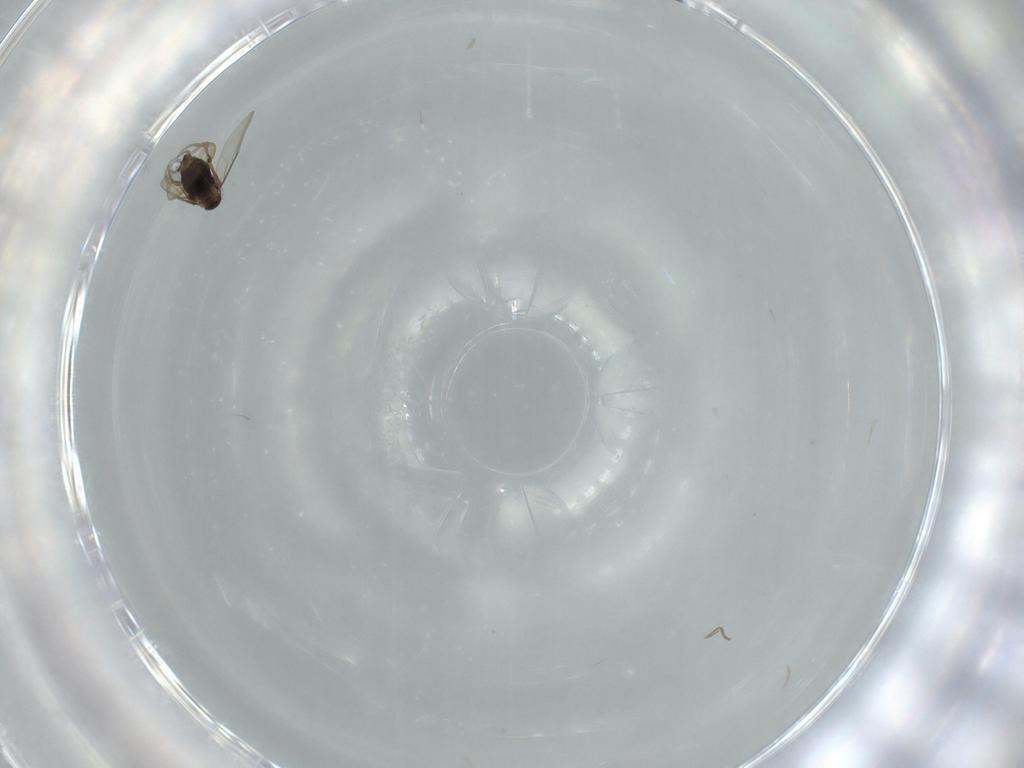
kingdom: Animalia
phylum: Arthropoda
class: Insecta
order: Diptera
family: Phoridae
